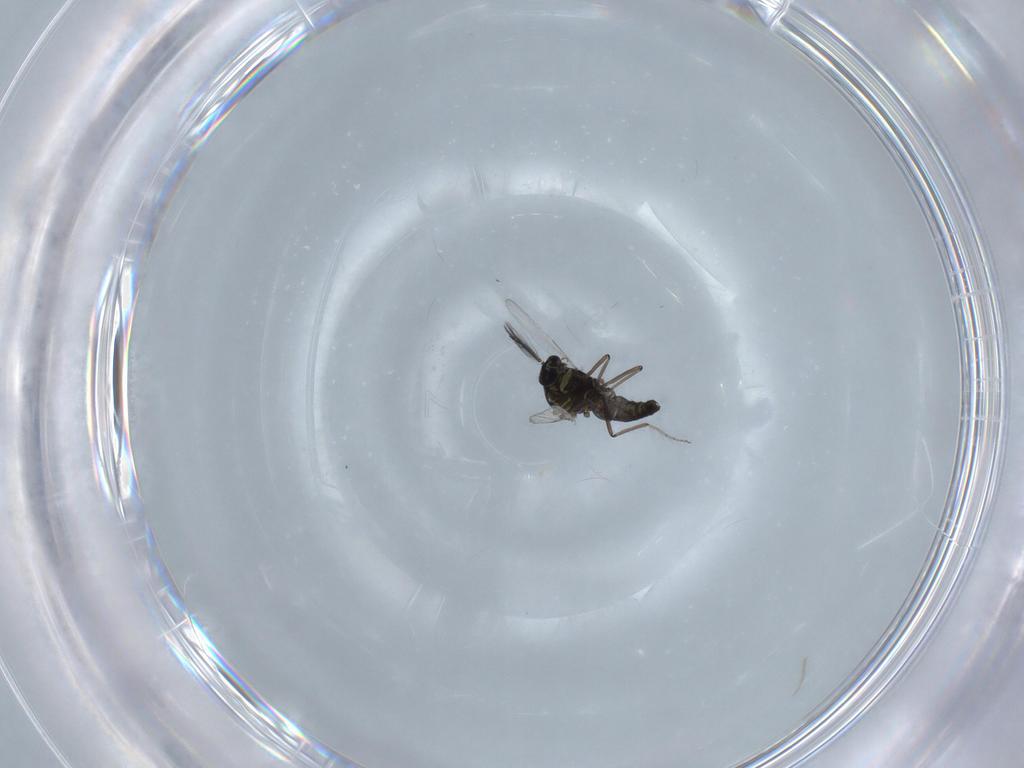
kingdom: Animalia
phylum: Arthropoda
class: Insecta
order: Diptera
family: Ceratopogonidae
